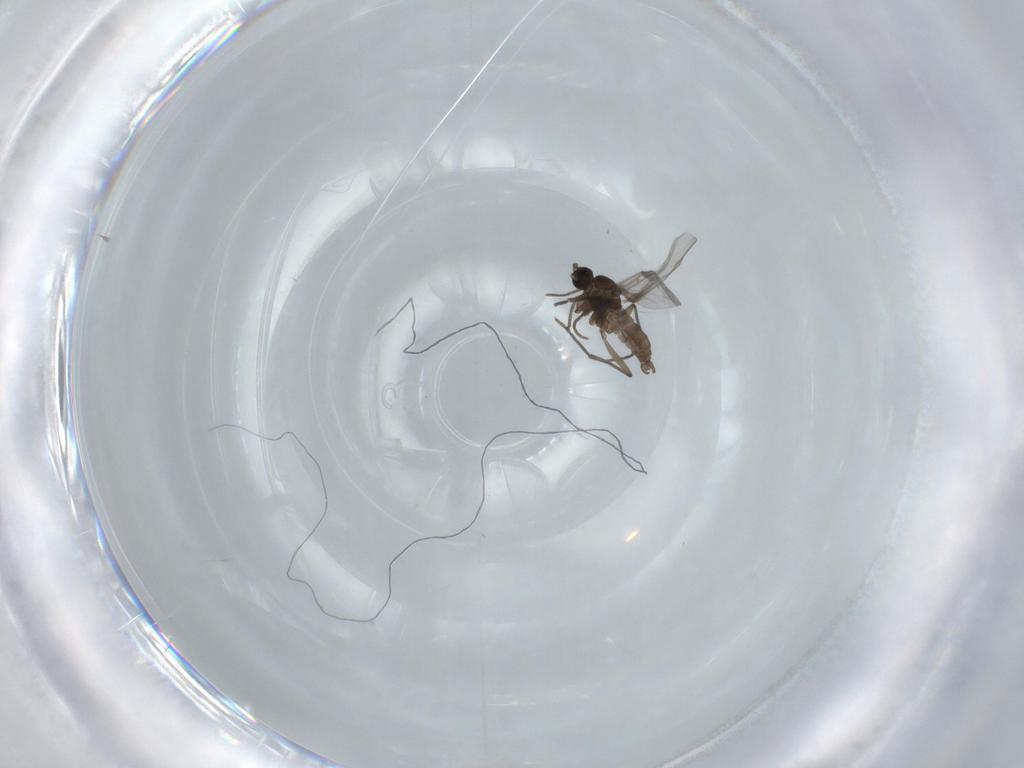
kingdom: Animalia
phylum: Arthropoda
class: Insecta
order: Diptera
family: Sciaridae
